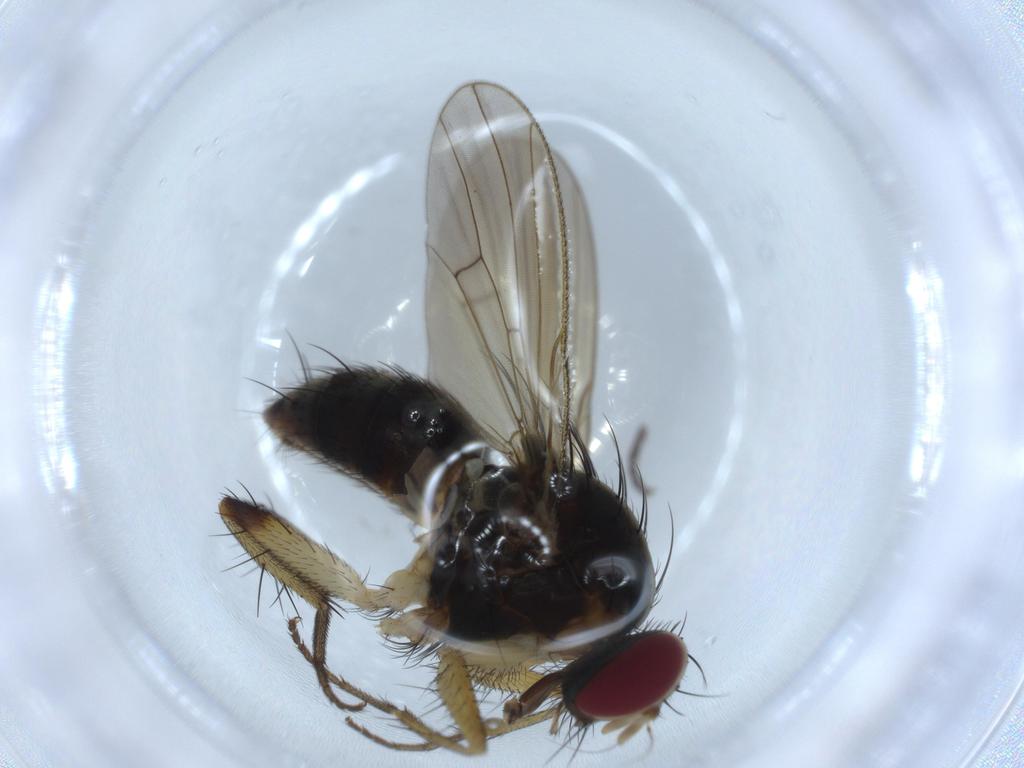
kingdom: Animalia
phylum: Arthropoda
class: Insecta
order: Diptera
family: Muscidae
